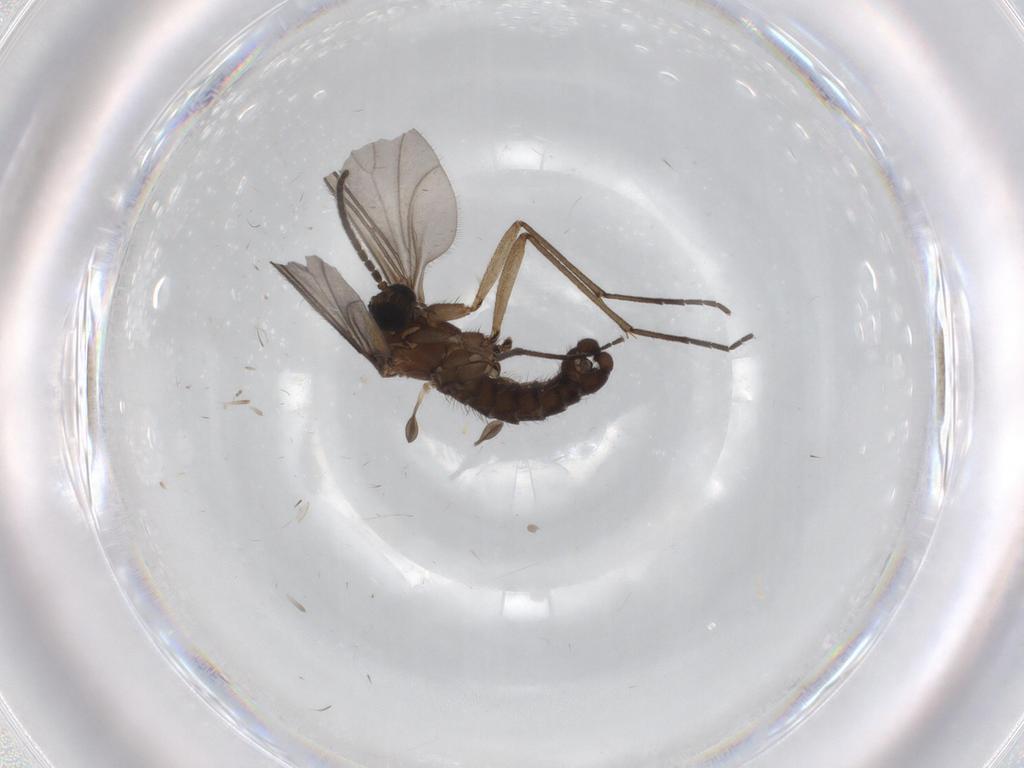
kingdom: Animalia
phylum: Arthropoda
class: Insecta
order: Diptera
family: Sciaridae
